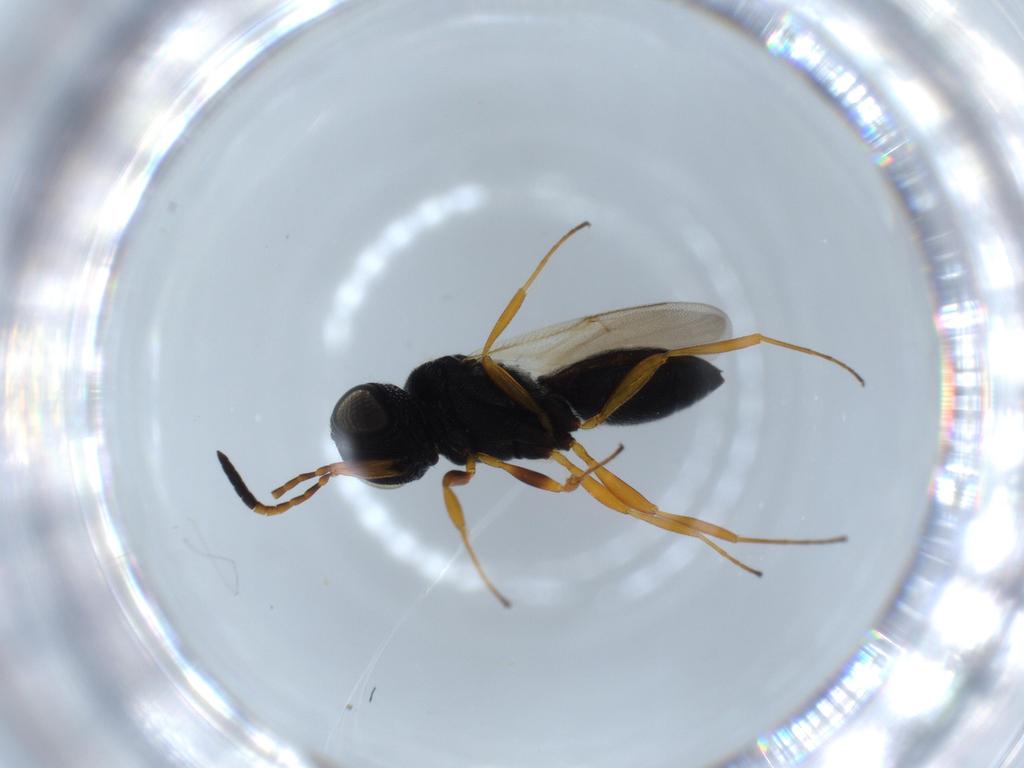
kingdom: Animalia
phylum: Arthropoda
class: Insecta
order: Hymenoptera
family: Scelionidae
